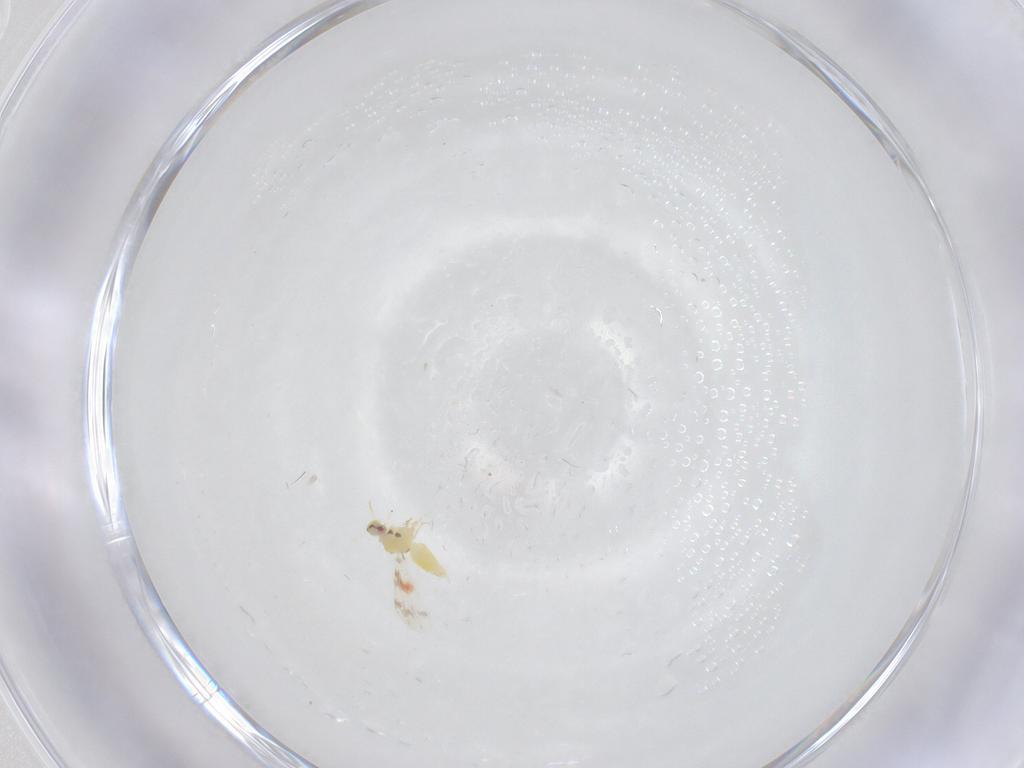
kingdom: Animalia
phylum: Arthropoda
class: Insecta
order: Hemiptera
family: Aleyrodidae
